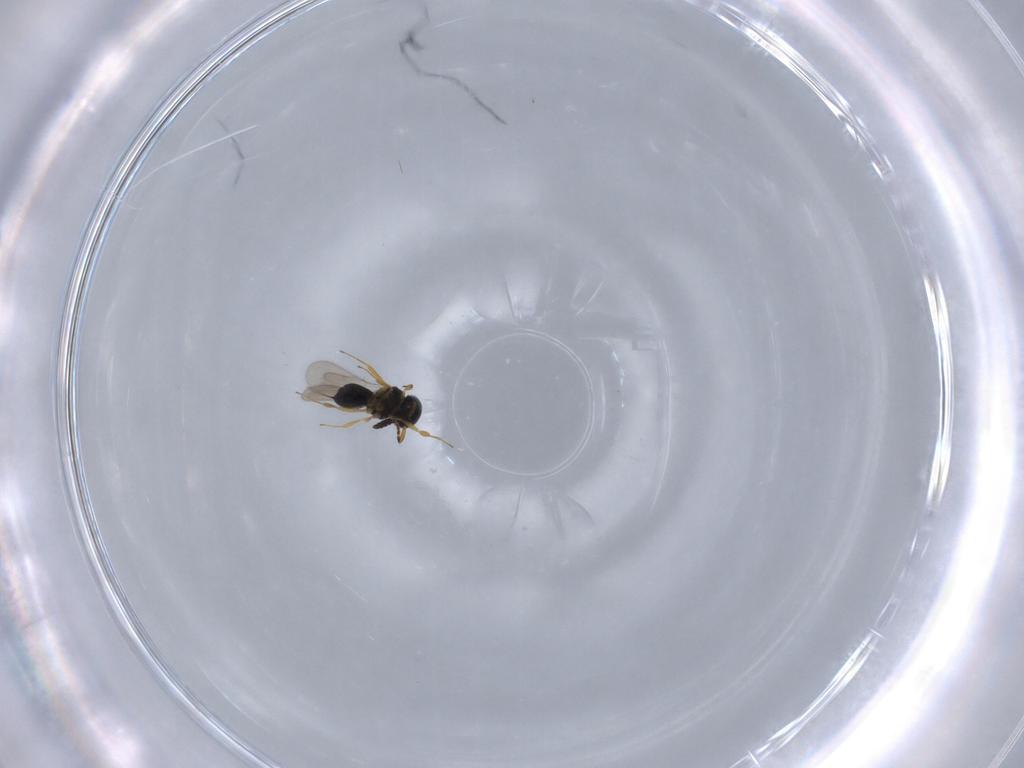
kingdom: Animalia
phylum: Arthropoda
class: Insecta
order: Hymenoptera
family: Scelionidae
